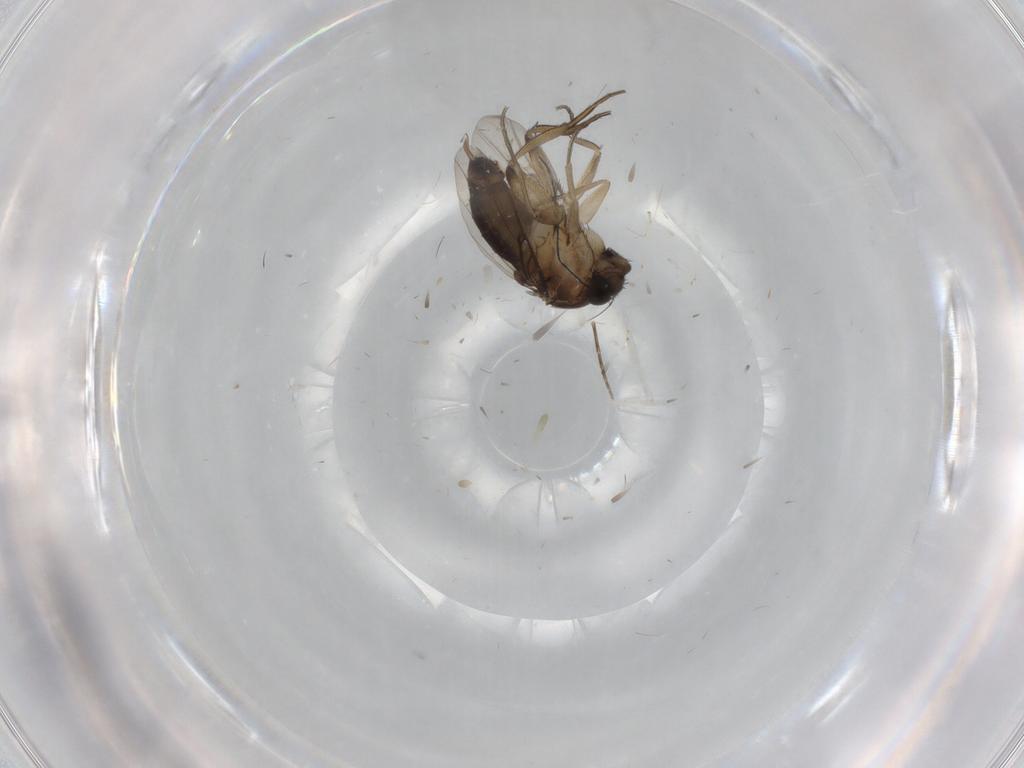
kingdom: Animalia
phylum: Arthropoda
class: Insecta
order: Diptera
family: Phoridae
